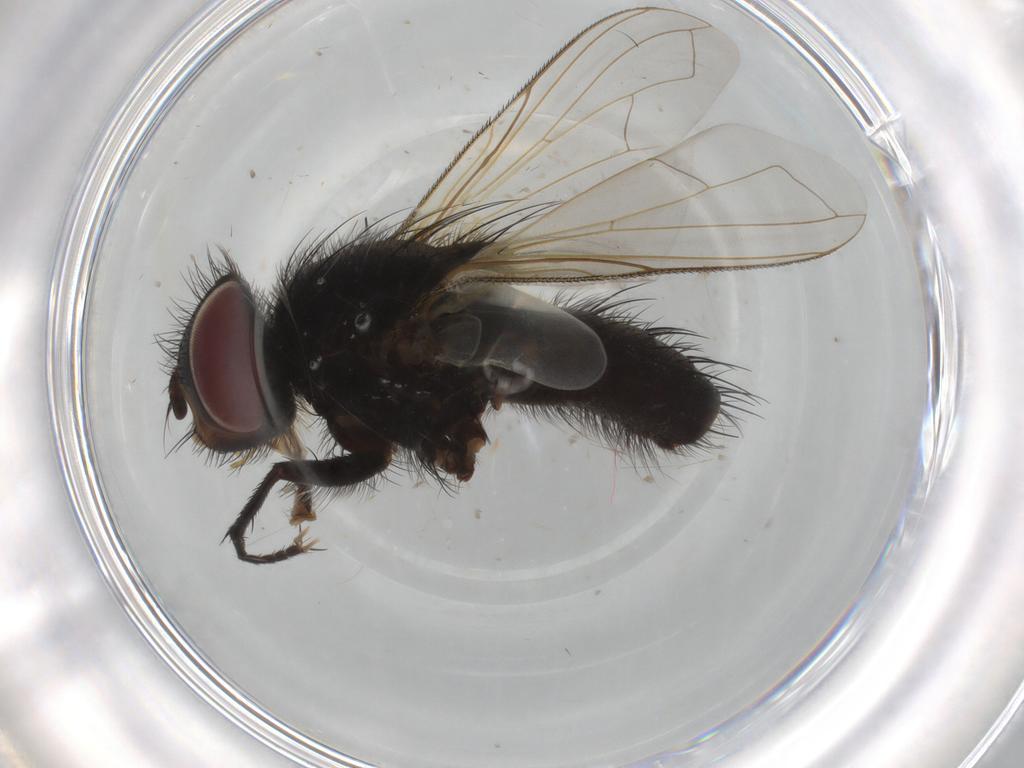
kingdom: Animalia
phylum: Arthropoda
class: Insecta
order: Diptera
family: Tachinidae
